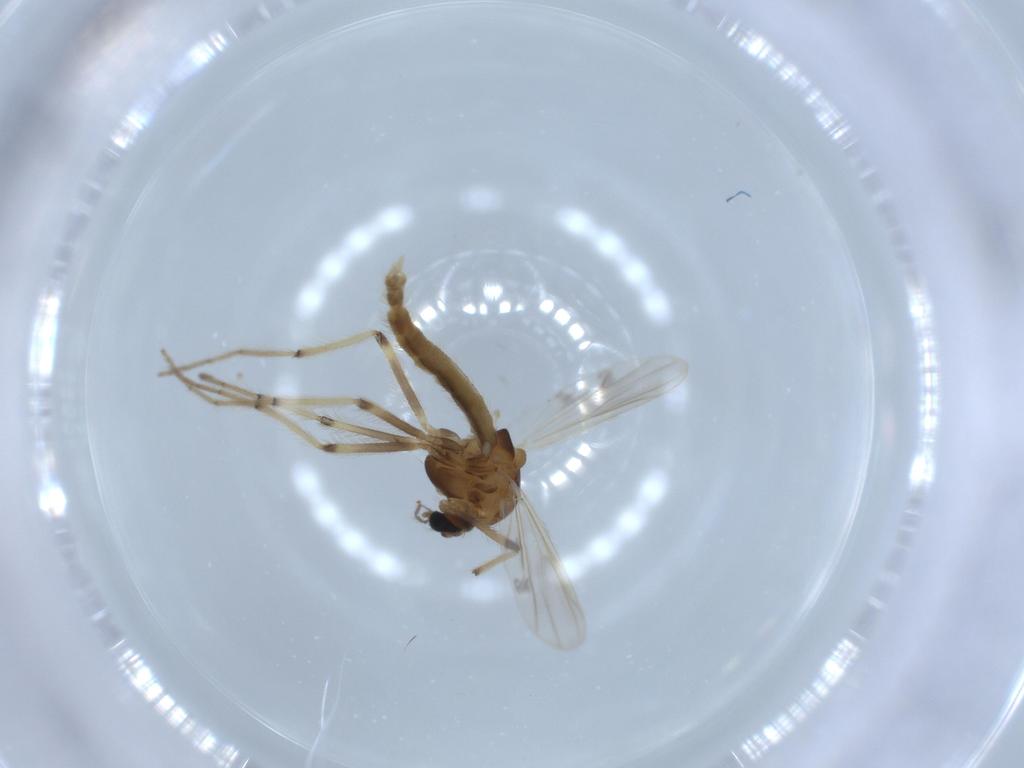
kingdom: Animalia
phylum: Arthropoda
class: Insecta
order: Diptera
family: Chironomidae
